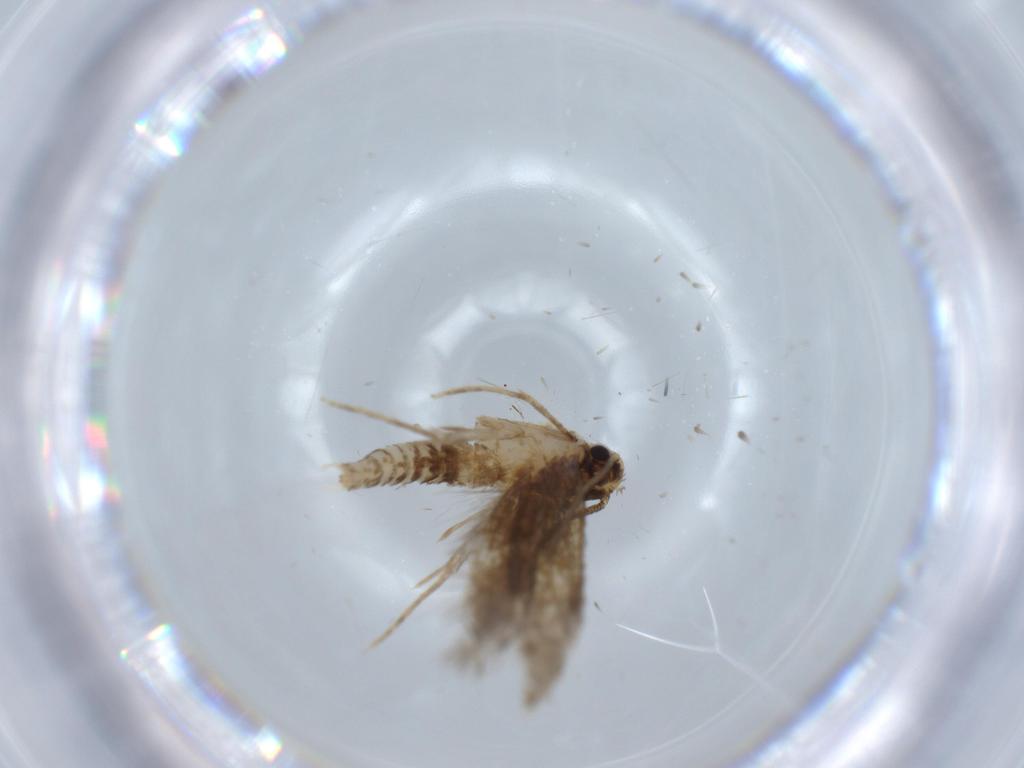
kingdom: Animalia
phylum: Arthropoda
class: Insecta
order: Lepidoptera
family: Tineidae
